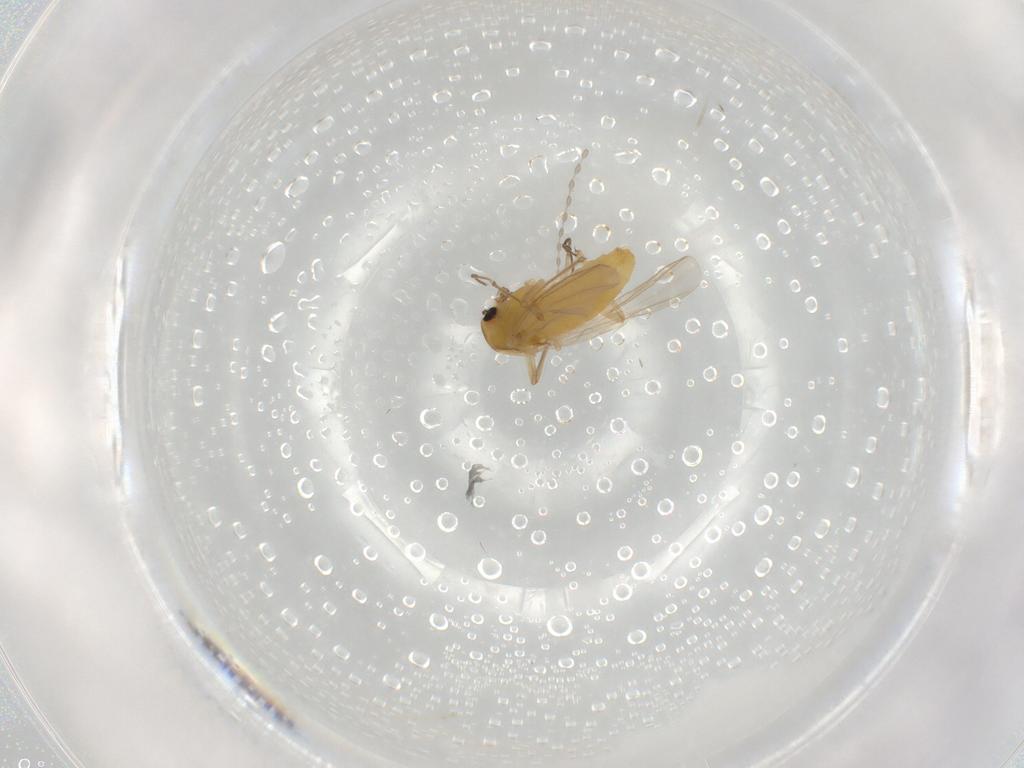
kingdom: Animalia
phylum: Arthropoda
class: Insecta
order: Diptera
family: Chironomidae
